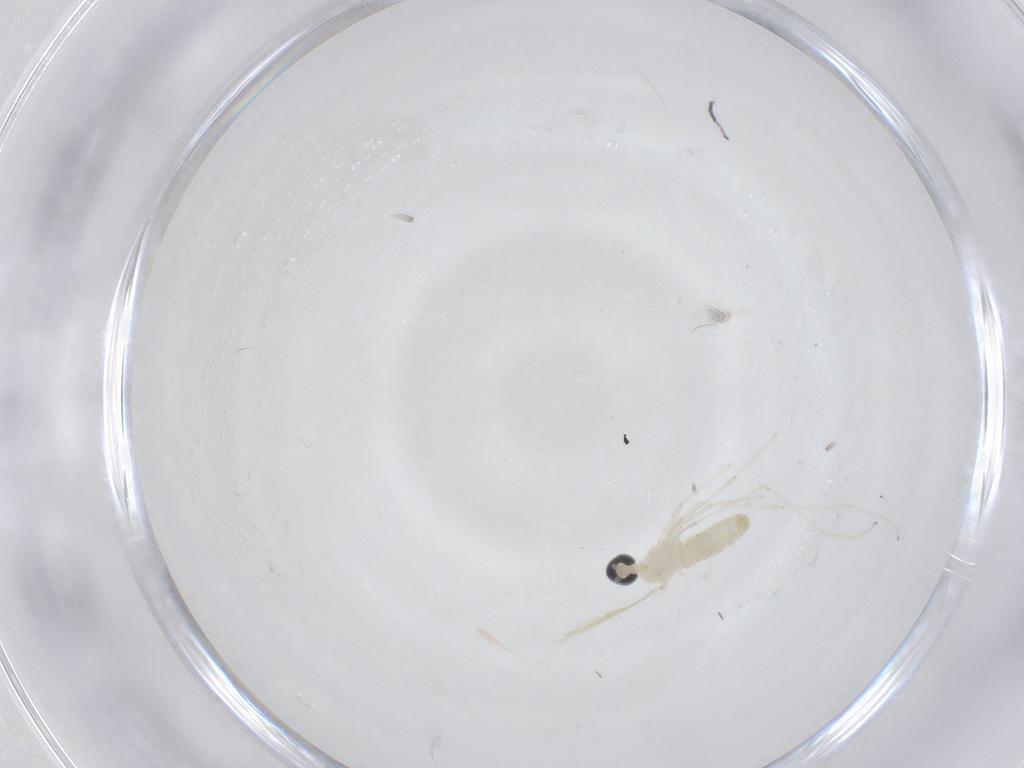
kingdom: Animalia
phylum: Arthropoda
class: Insecta
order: Diptera
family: Cecidomyiidae
